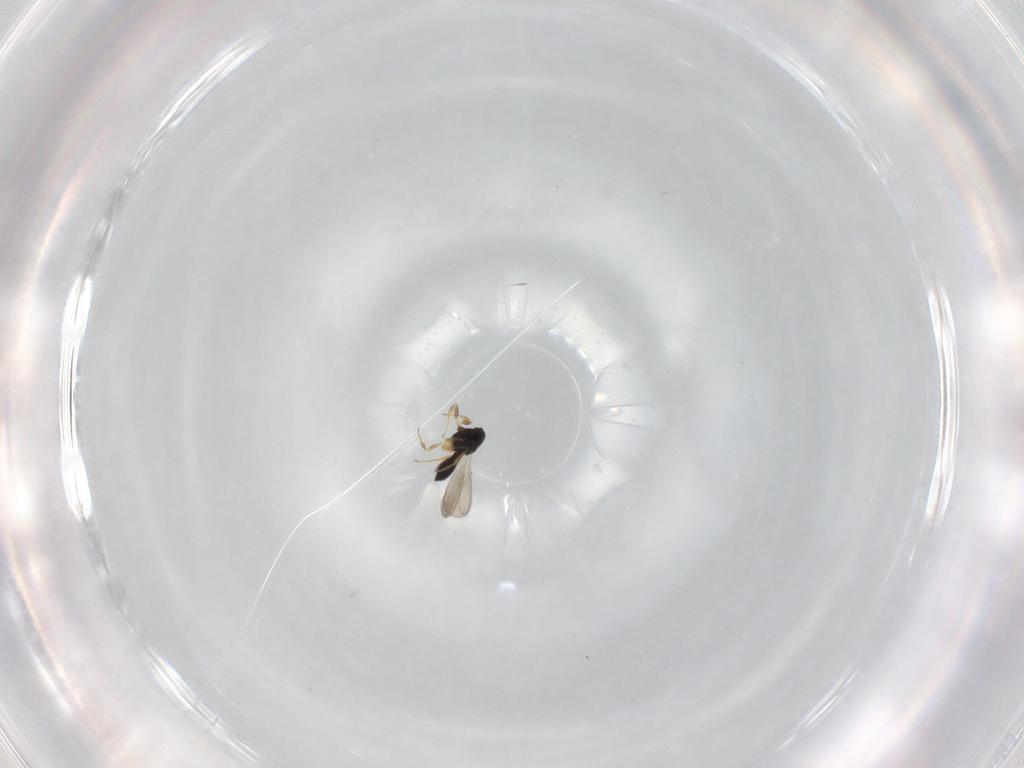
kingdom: Animalia
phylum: Arthropoda
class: Insecta
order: Hymenoptera
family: Scelionidae
